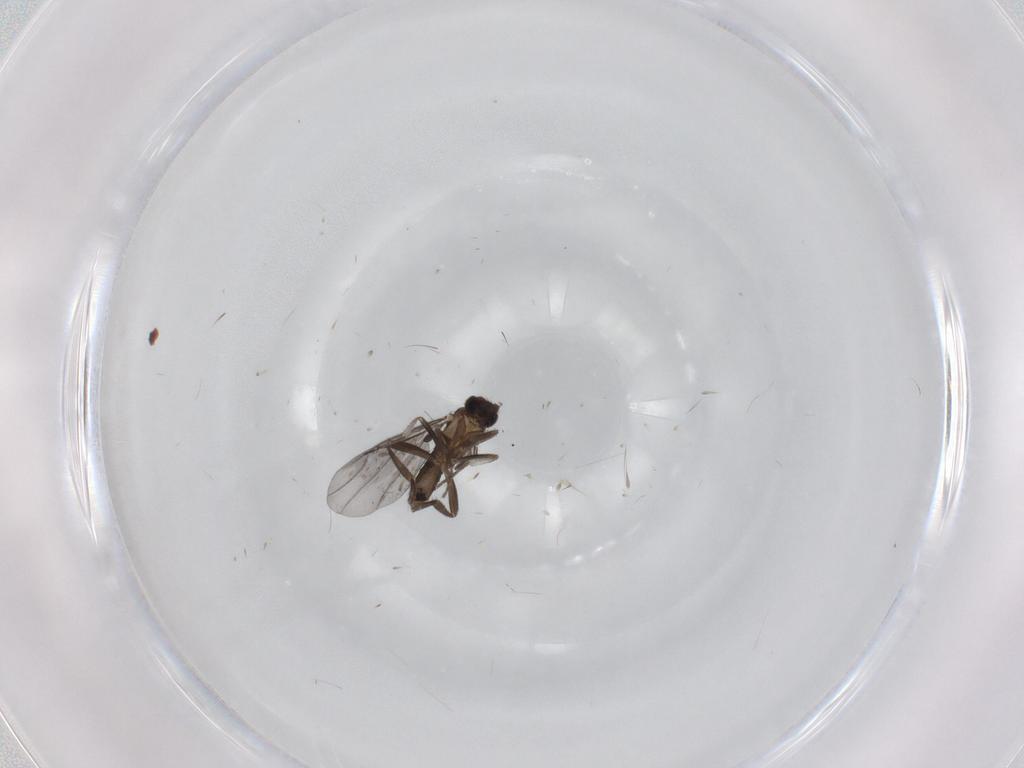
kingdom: Animalia
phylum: Arthropoda
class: Insecta
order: Diptera
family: Phoridae
